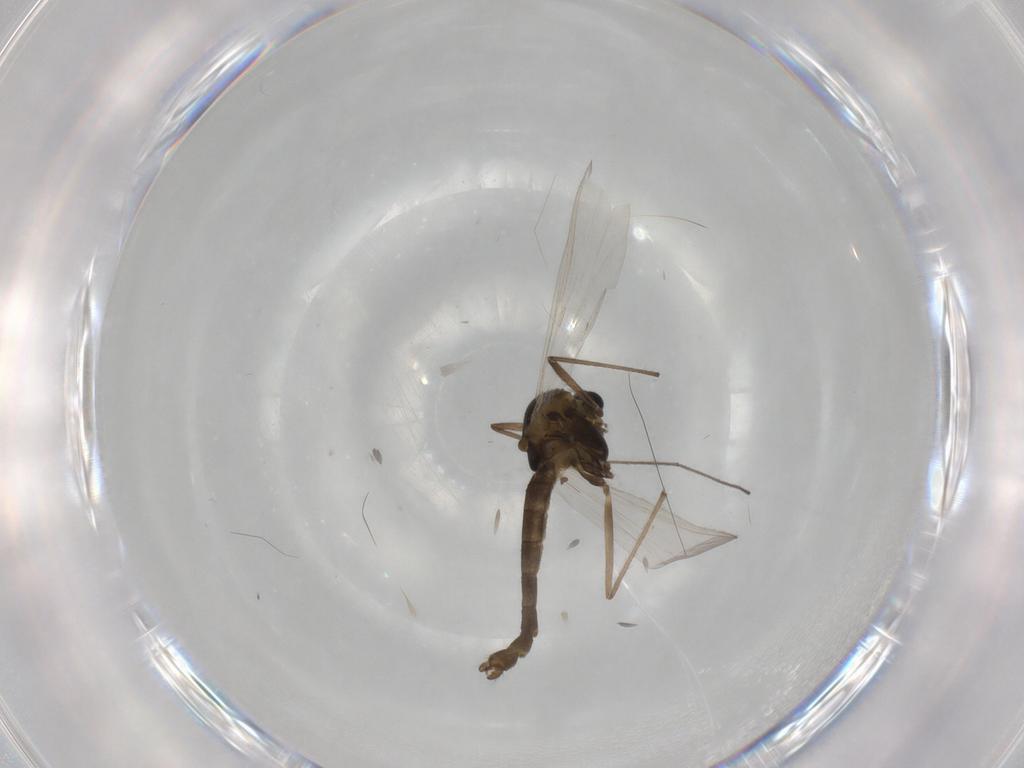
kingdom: Animalia
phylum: Arthropoda
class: Insecta
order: Diptera
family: Chironomidae
